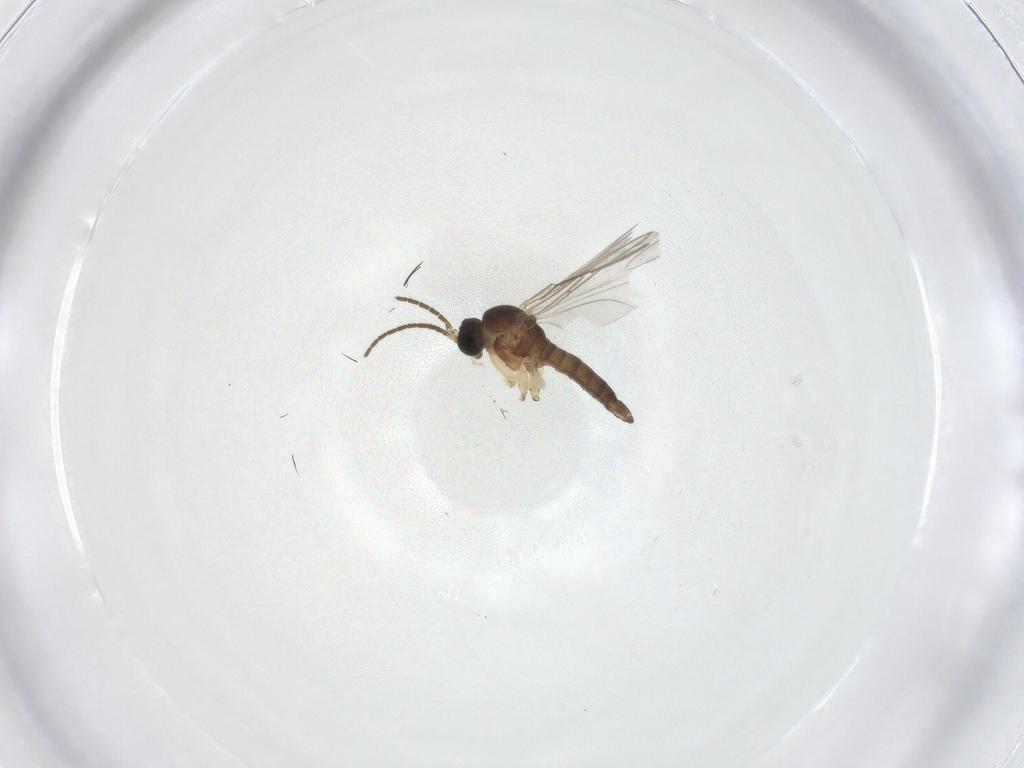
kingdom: Animalia
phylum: Arthropoda
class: Insecta
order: Diptera
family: Sciaridae
